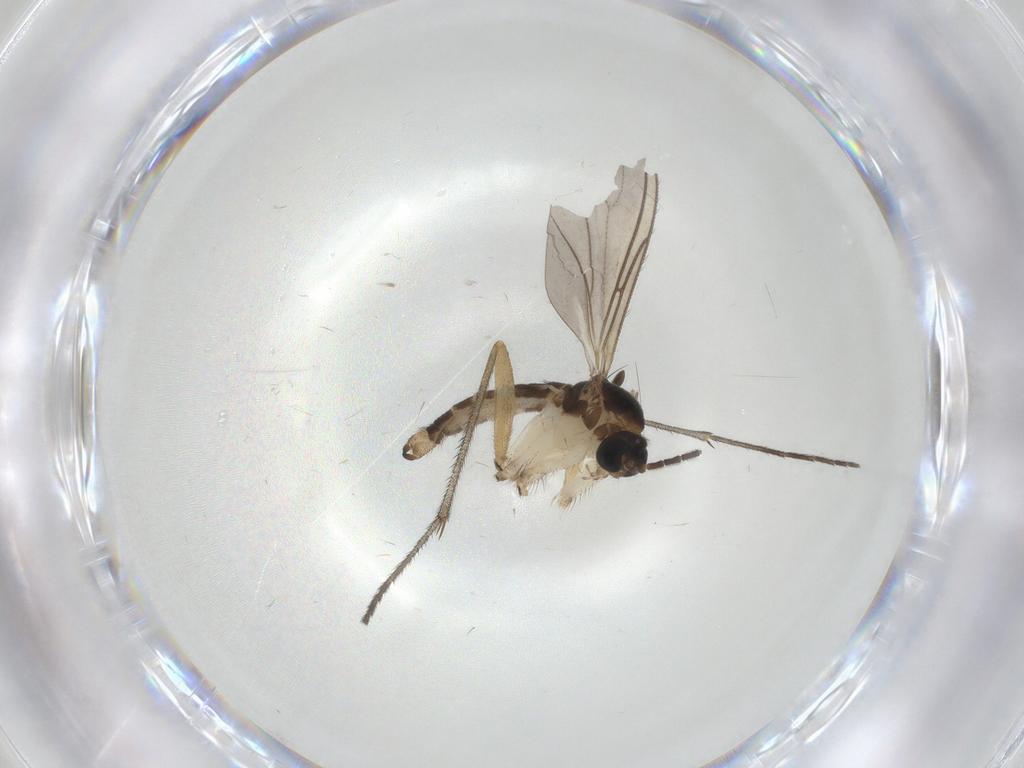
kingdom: Animalia
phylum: Arthropoda
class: Insecta
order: Diptera
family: Sciaridae
